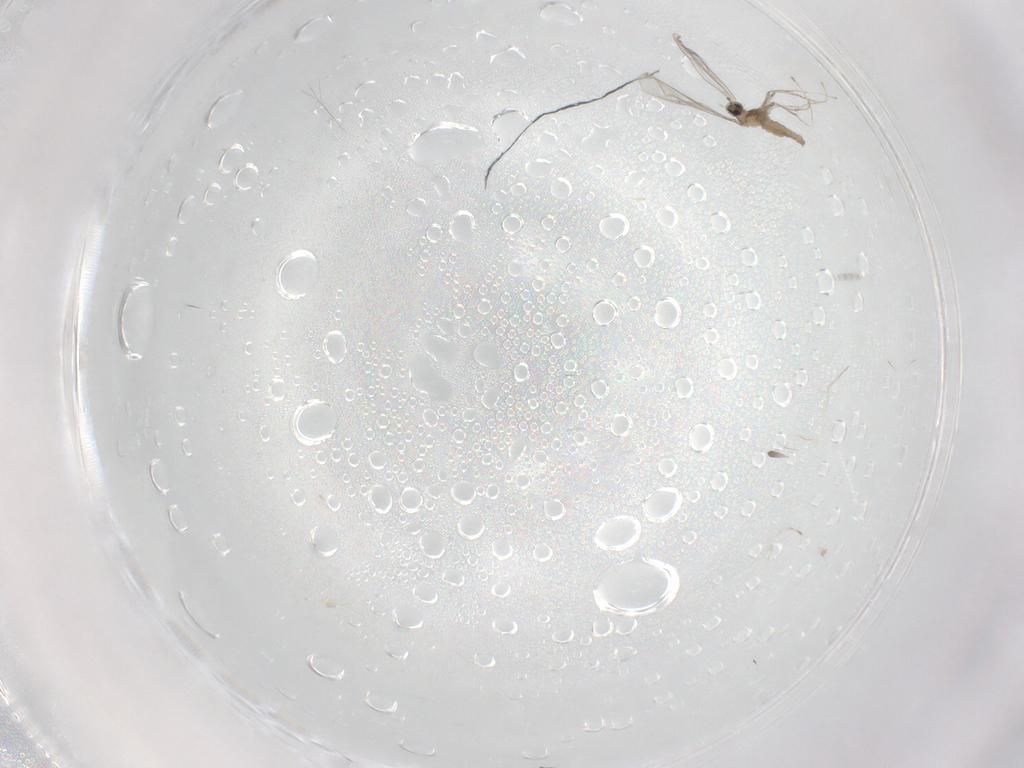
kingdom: Animalia
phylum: Arthropoda
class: Insecta
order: Diptera
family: Cecidomyiidae
